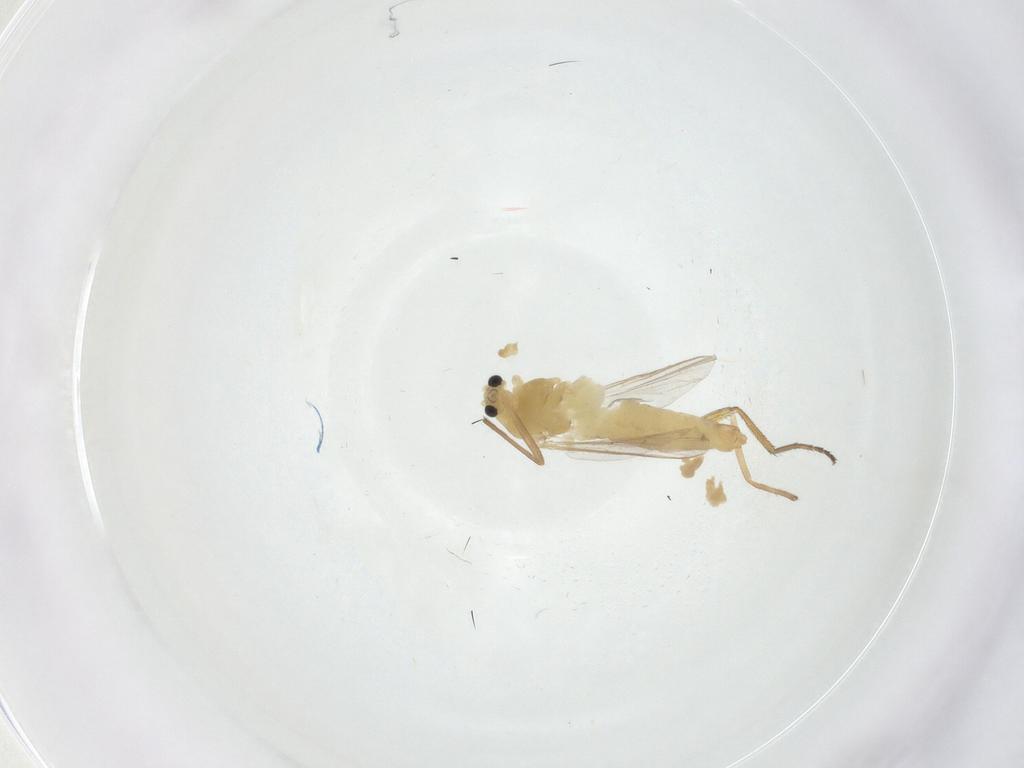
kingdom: Animalia
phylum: Arthropoda
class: Insecta
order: Diptera
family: Chironomidae
